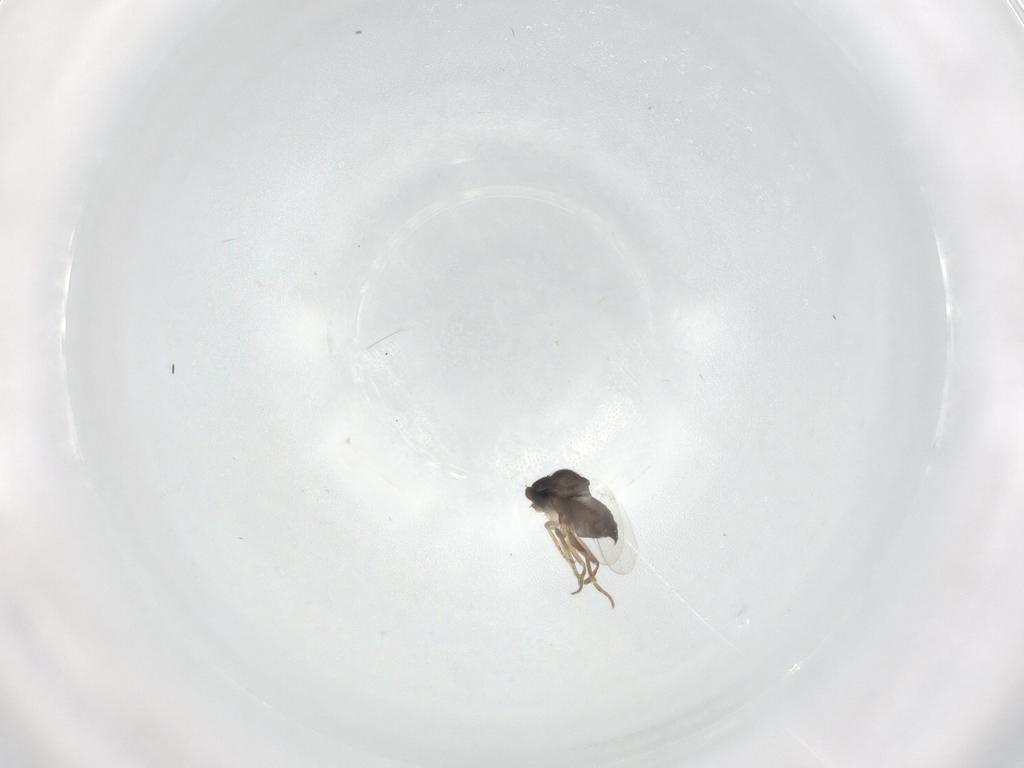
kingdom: Animalia
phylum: Arthropoda
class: Insecta
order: Diptera
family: Phoridae
